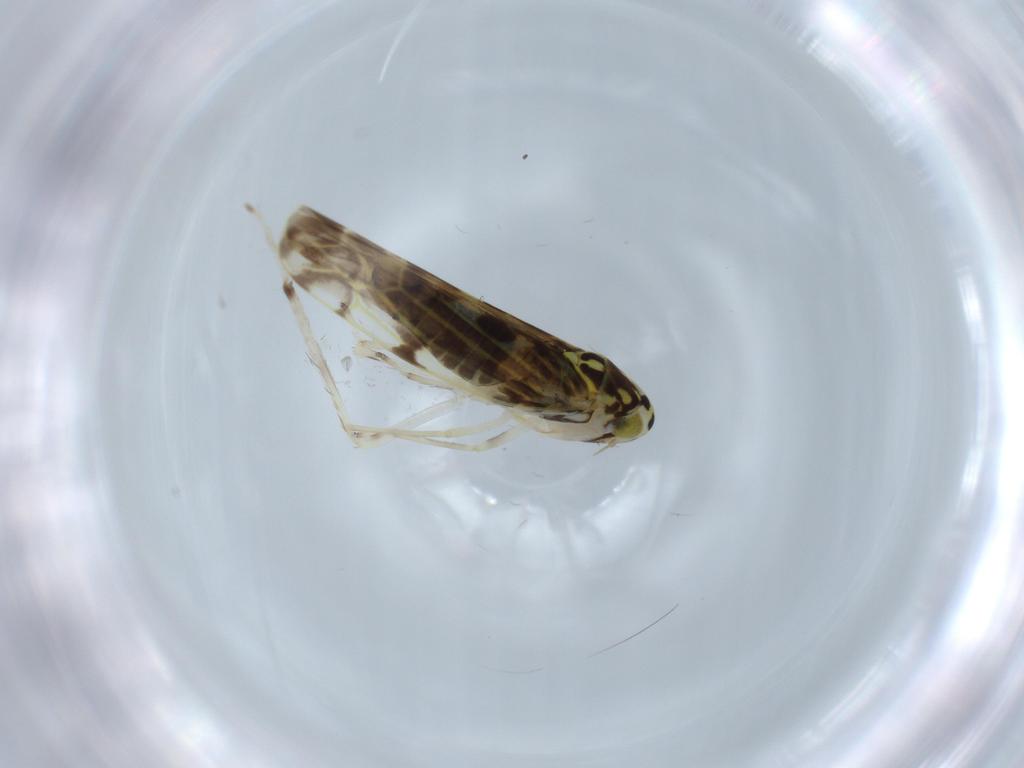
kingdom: Animalia
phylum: Arthropoda
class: Insecta
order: Hemiptera
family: Cicadellidae
